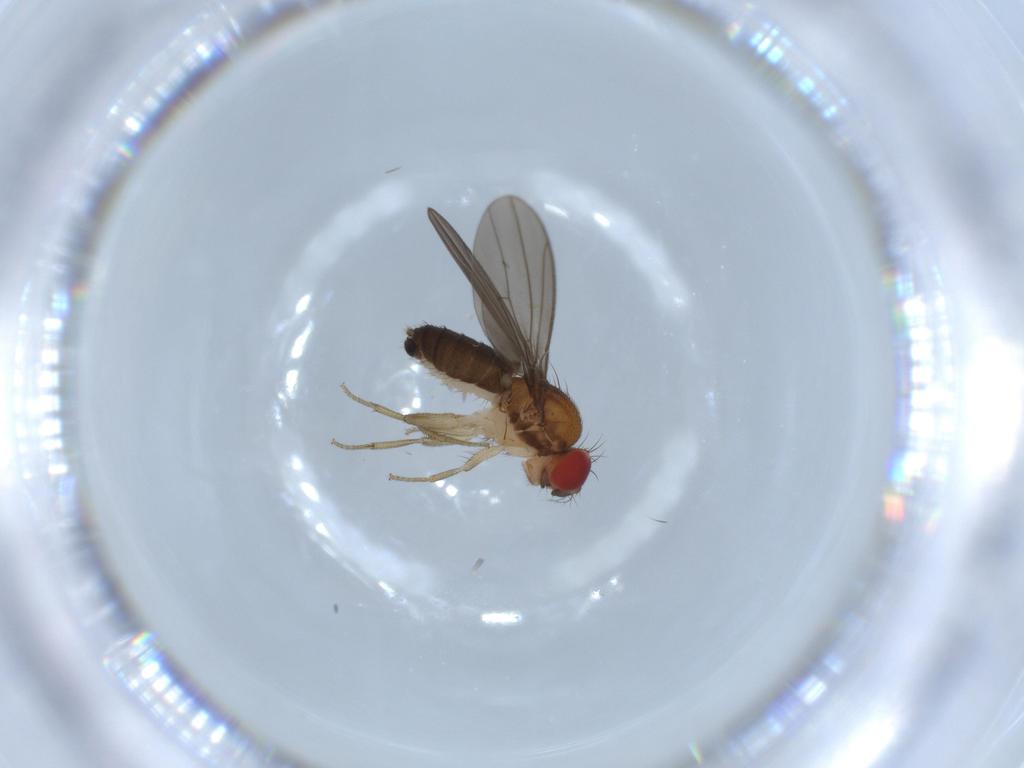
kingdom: Animalia
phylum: Arthropoda
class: Insecta
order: Diptera
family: Drosophilidae
